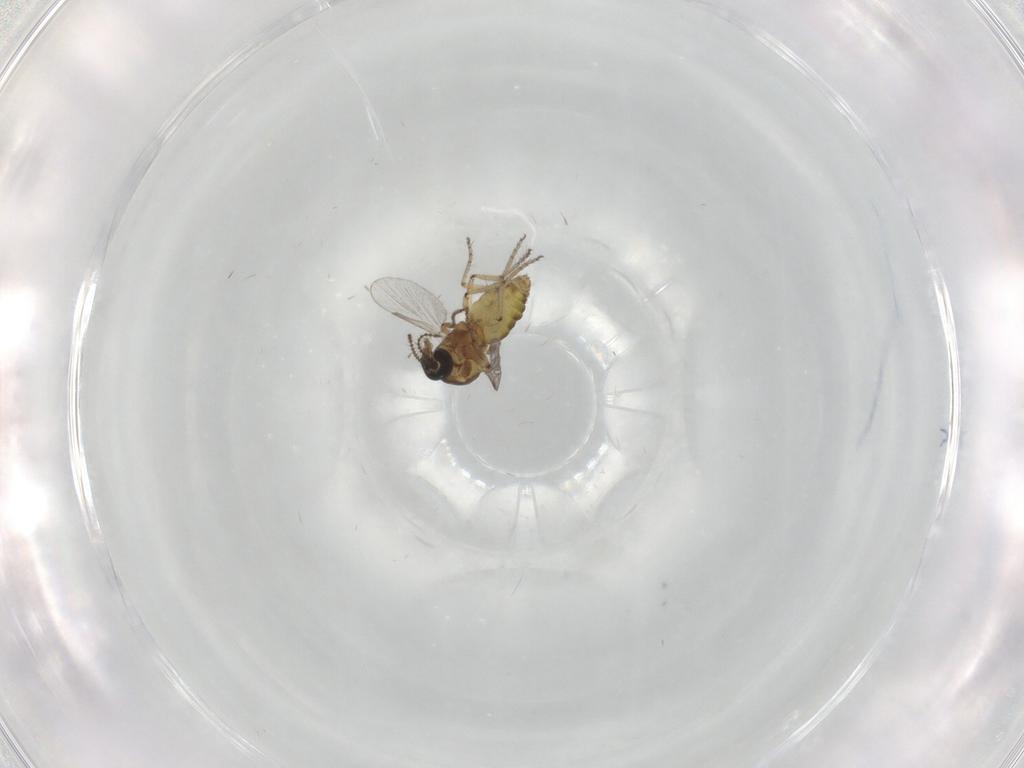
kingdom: Animalia
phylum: Arthropoda
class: Insecta
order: Diptera
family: Ceratopogonidae
